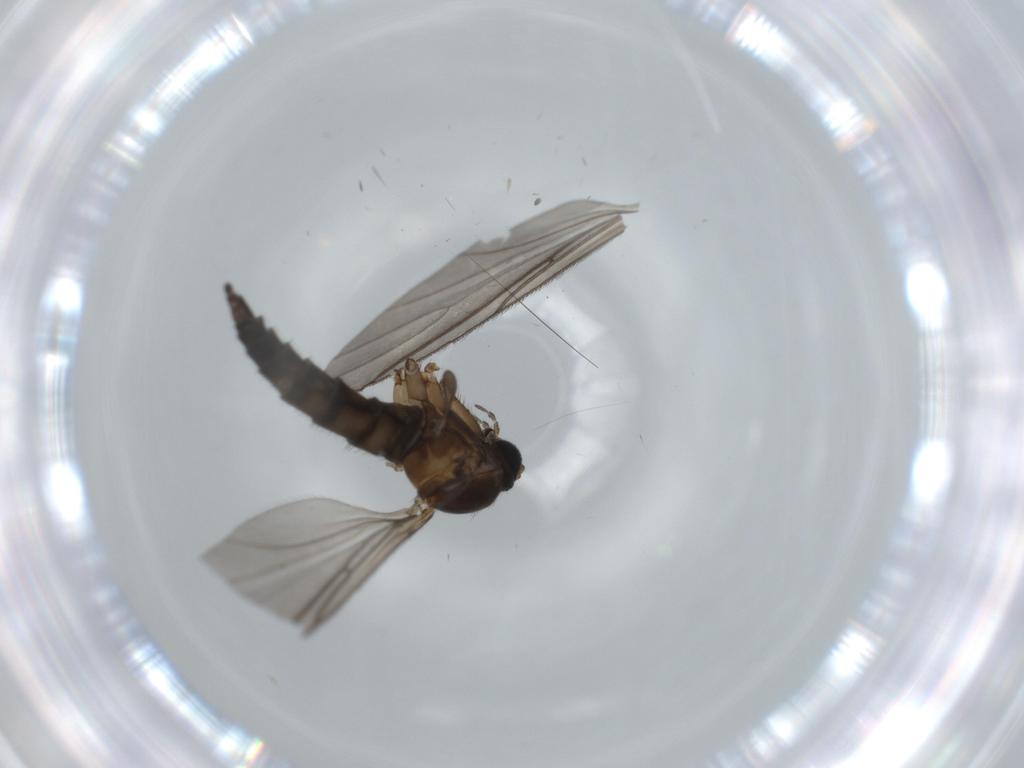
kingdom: Animalia
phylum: Arthropoda
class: Insecta
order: Diptera
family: Sciaridae
